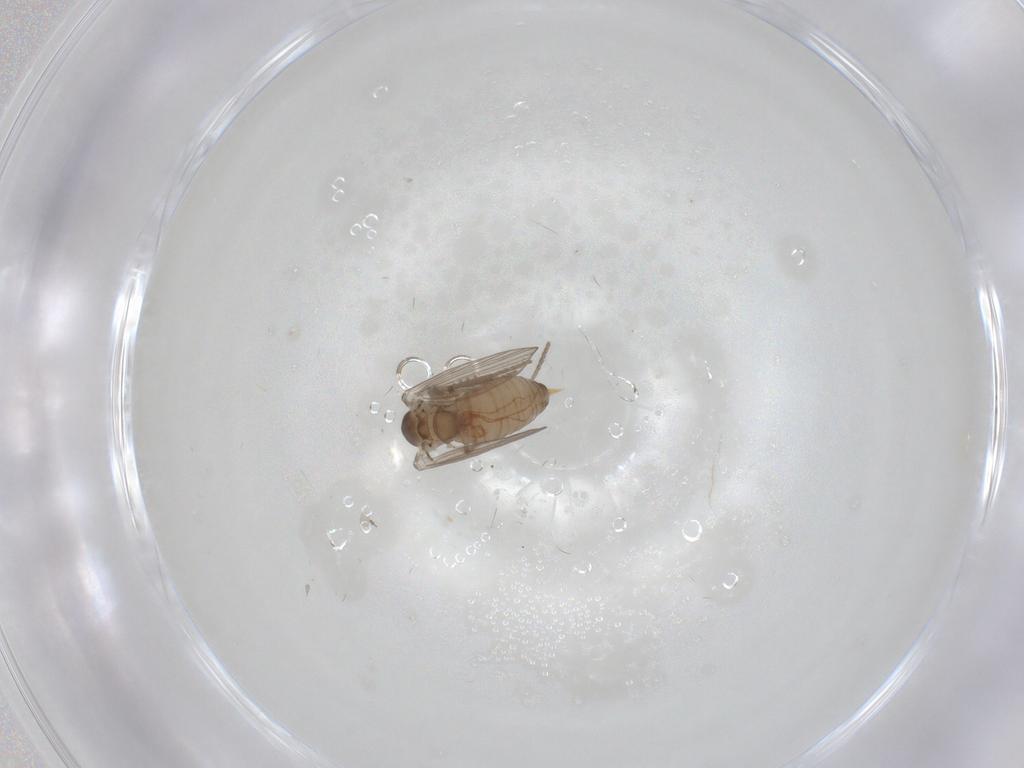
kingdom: Animalia
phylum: Arthropoda
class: Insecta
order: Diptera
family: Psychodidae
